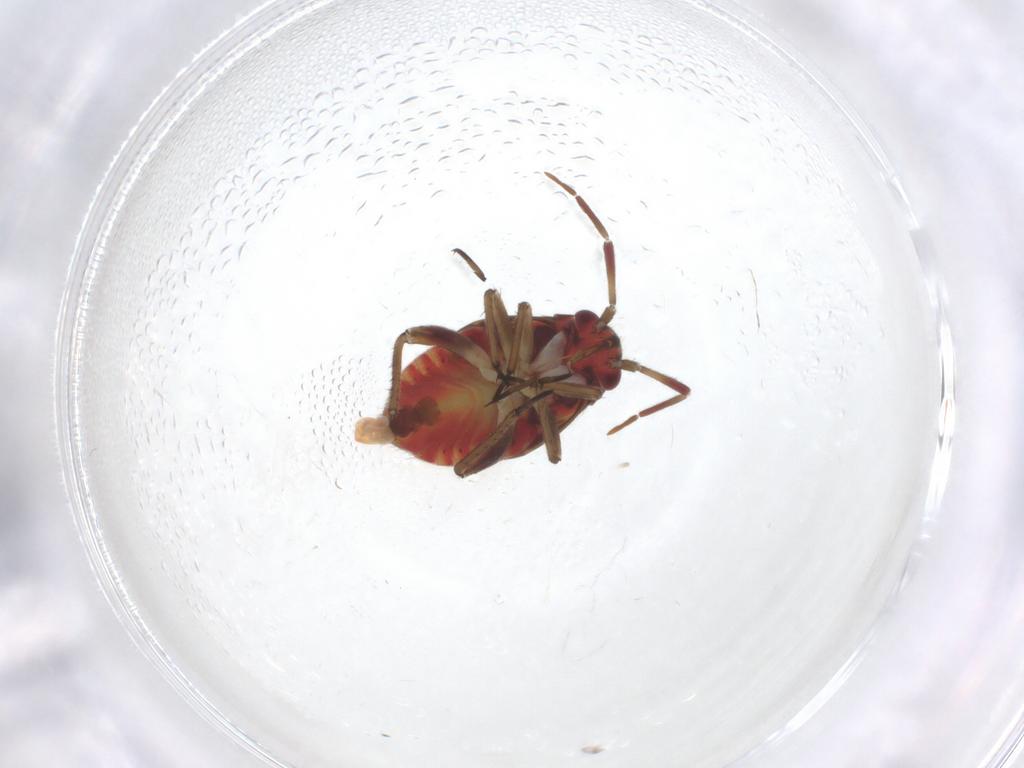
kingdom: Animalia
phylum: Arthropoda
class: Insecta
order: Hemiptera
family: Miridae
